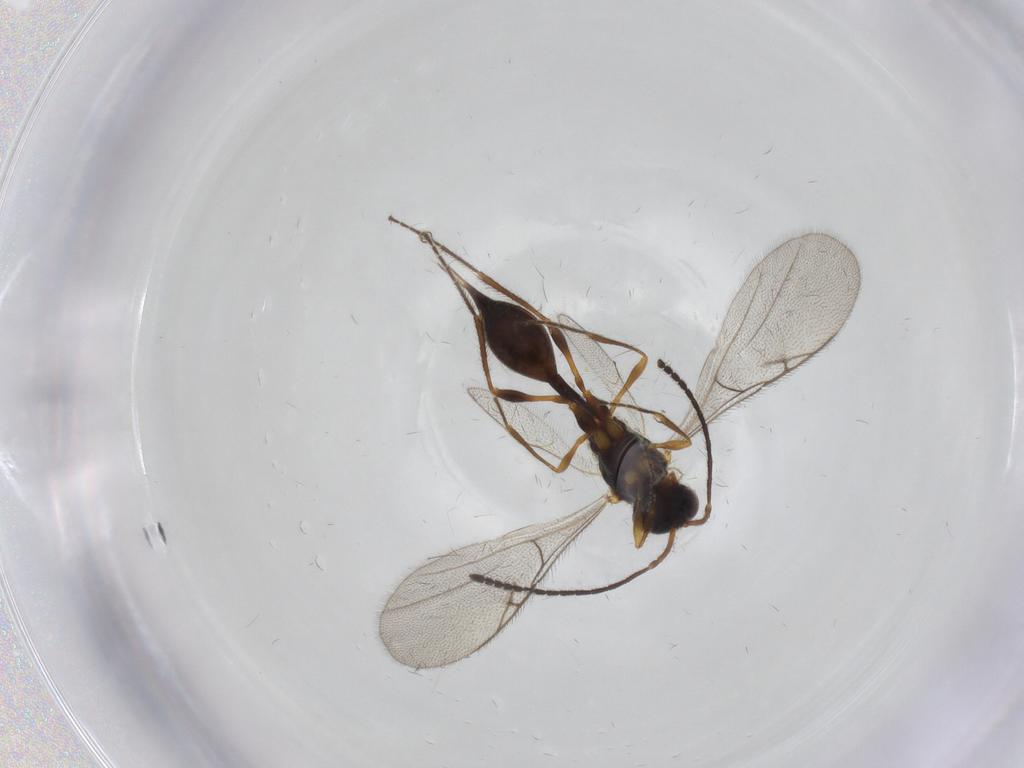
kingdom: Animalia
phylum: Arthropoda
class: Insecta
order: Hymenoptera
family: Diapriidae
